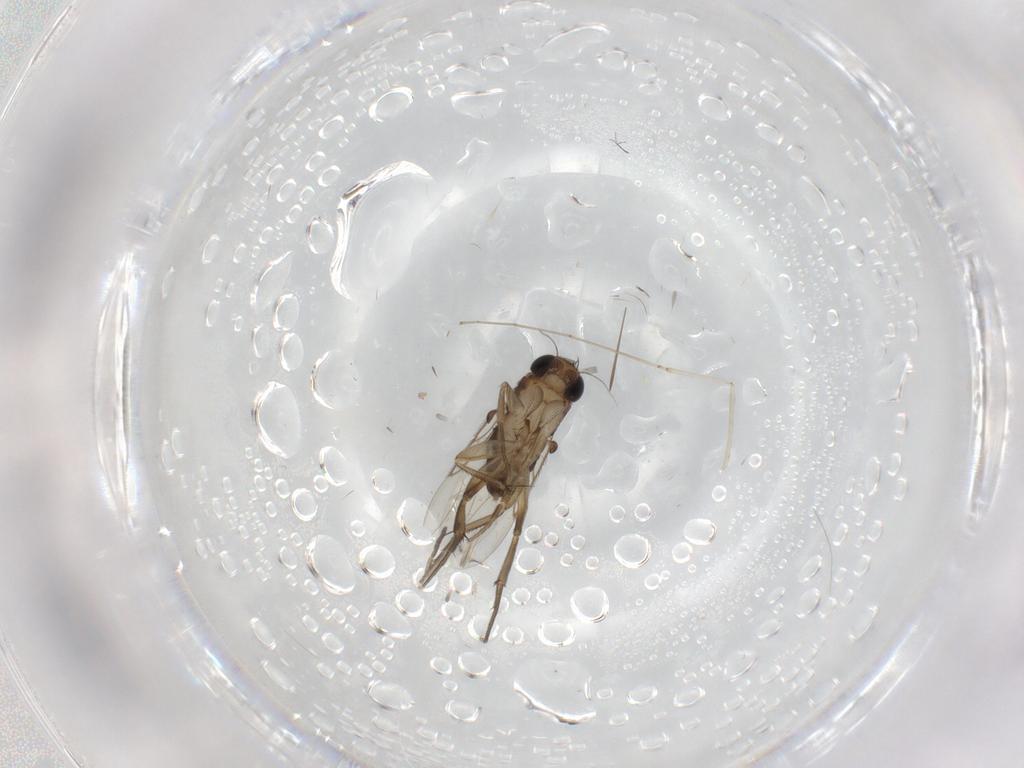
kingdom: Animalia
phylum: Arthropoda
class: Insecta
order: Diptera
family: Phoridae
